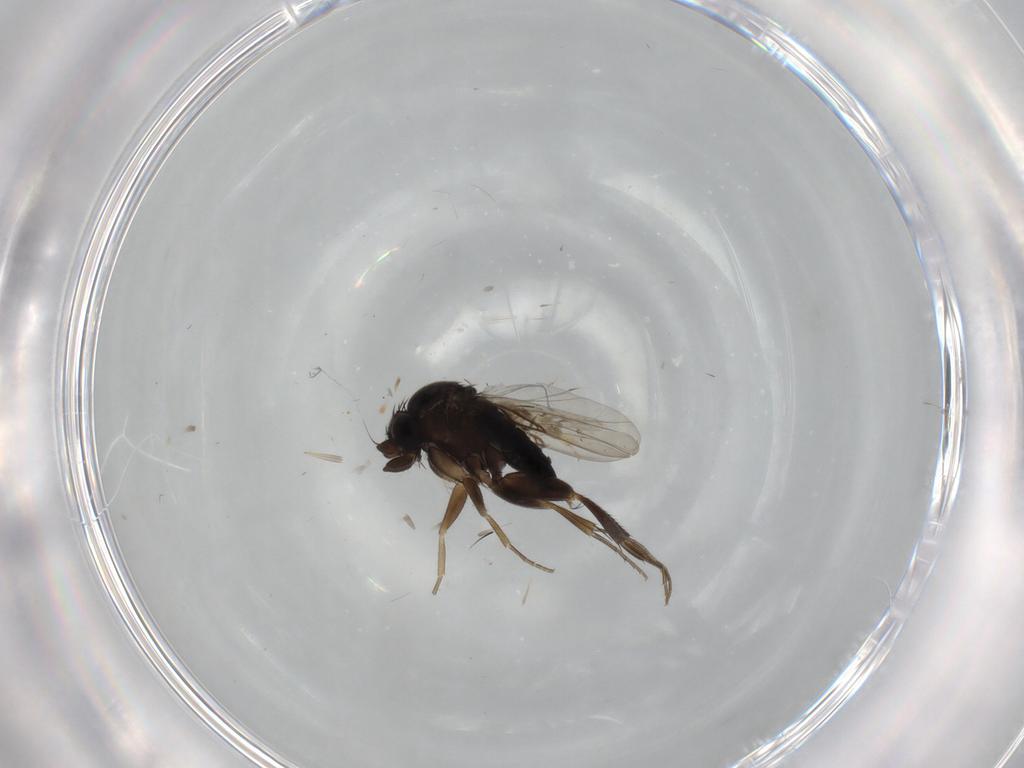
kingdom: Animalia
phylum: Arthropoda
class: Insecta
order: Diptera
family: Phoridae
